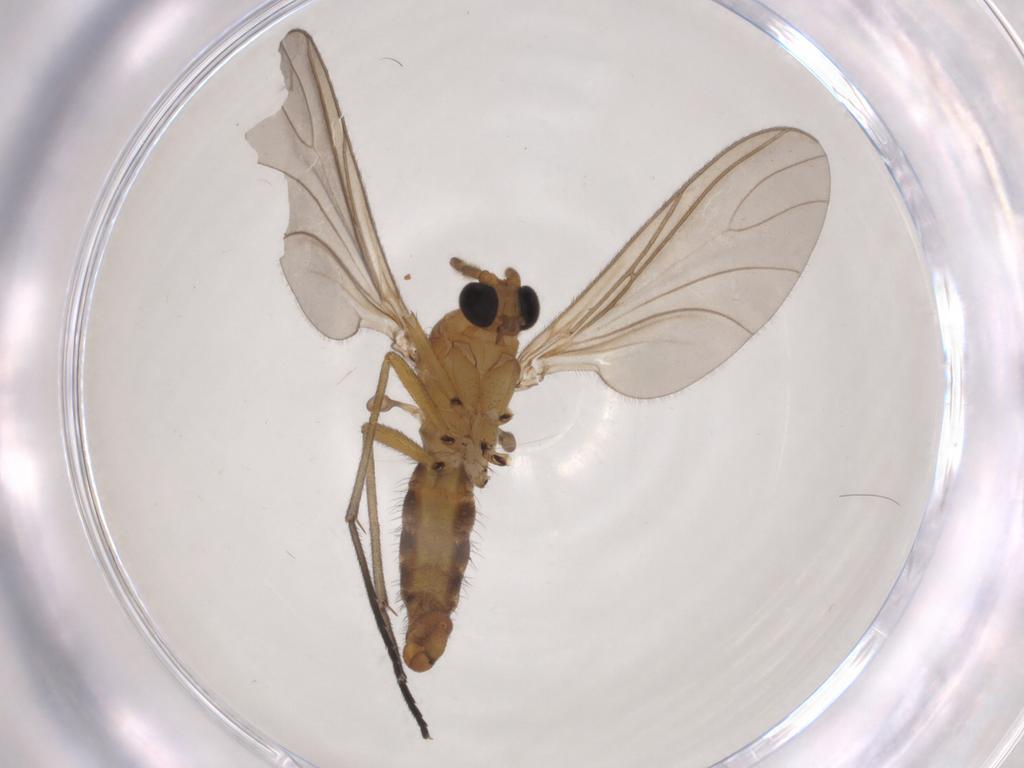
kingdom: Animalia
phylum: Arthropoda
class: Insecta
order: Diptera
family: Sciaridae
